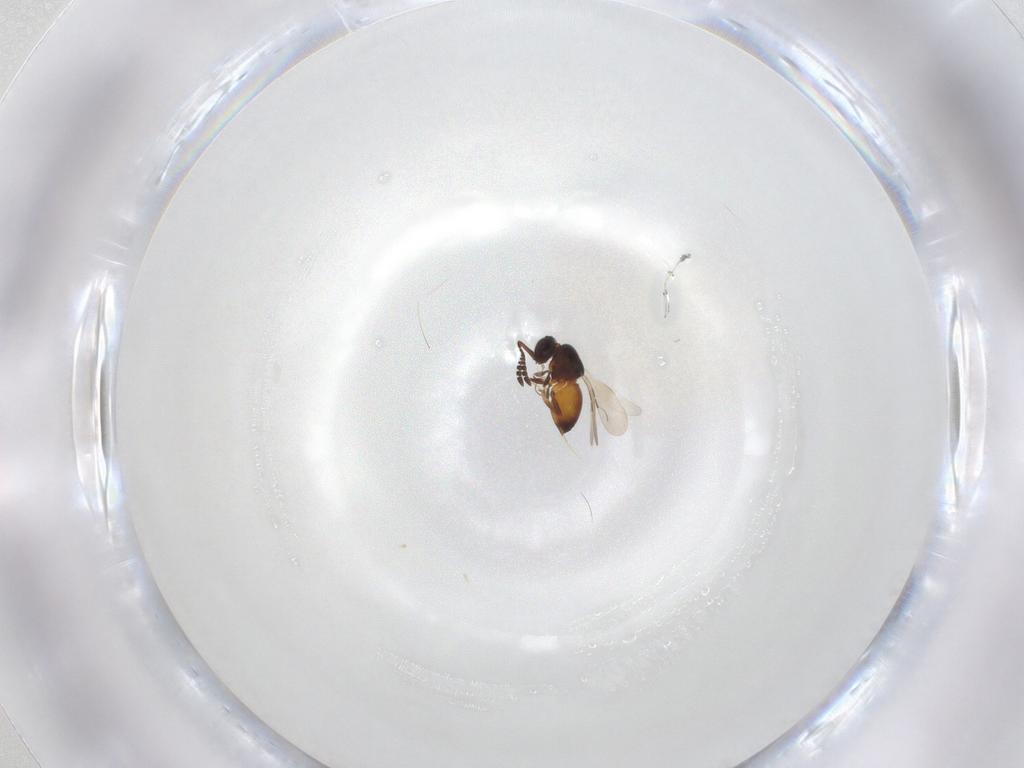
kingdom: Animalia
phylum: Arthropoda
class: Insecta
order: Hymenoptera
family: Ceraphronidae
